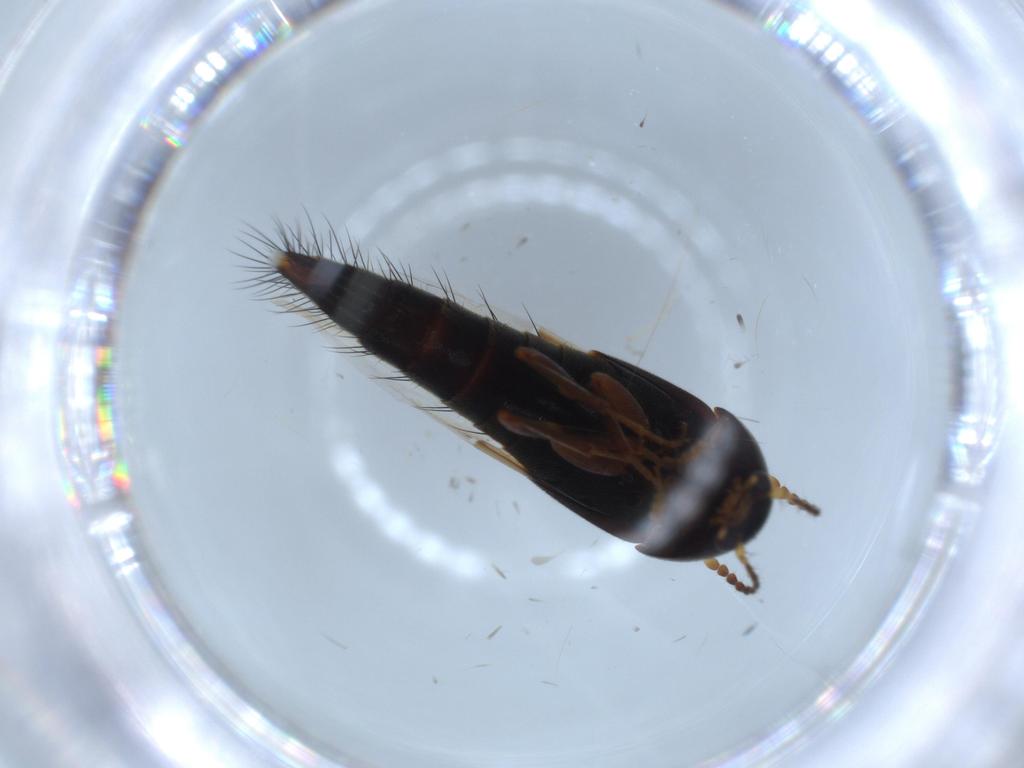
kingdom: Animalia
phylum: Arthropoda
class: Insecta
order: Coleoptera
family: Staphylinidae
